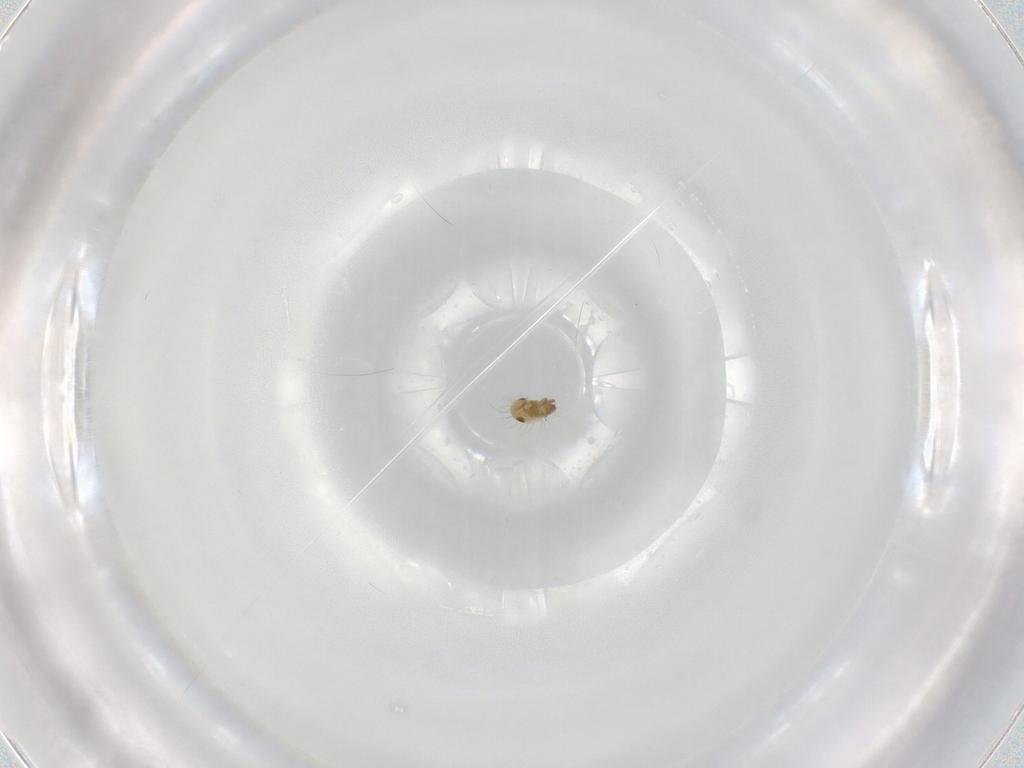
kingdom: Animalia
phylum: Arthropoda
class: Arachnida
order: Sarcoptiformes
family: Humerobatidae
